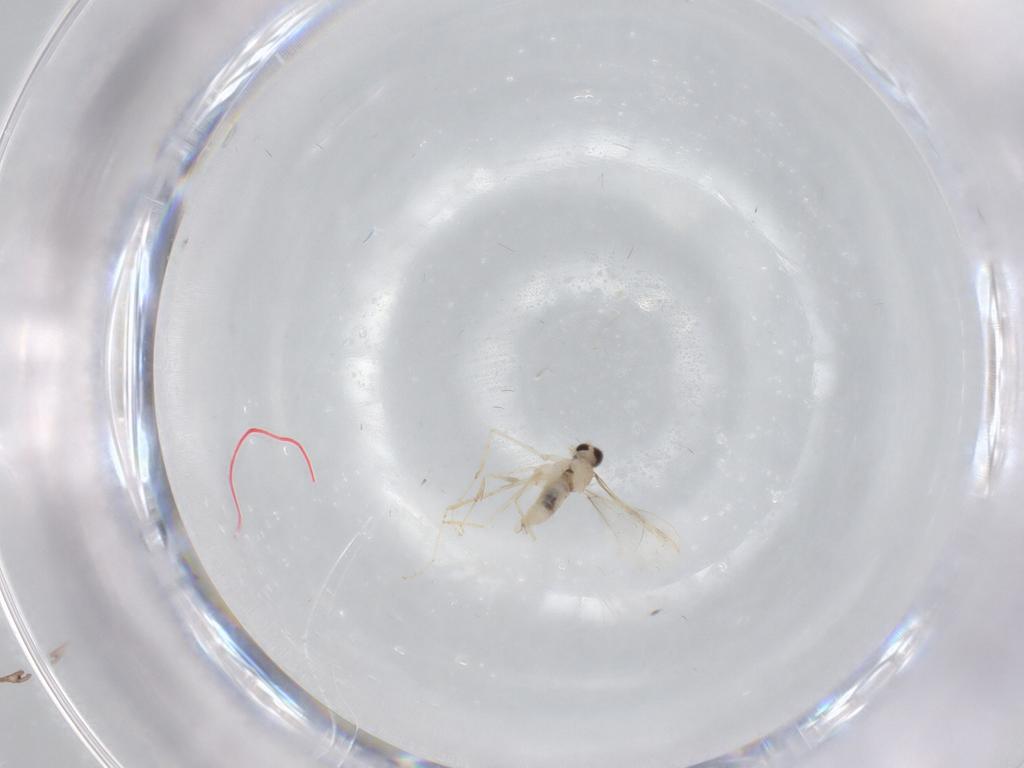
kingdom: Animalia
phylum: Arthropoda
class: Insecta
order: Diptera
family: Cecidomyiidae
